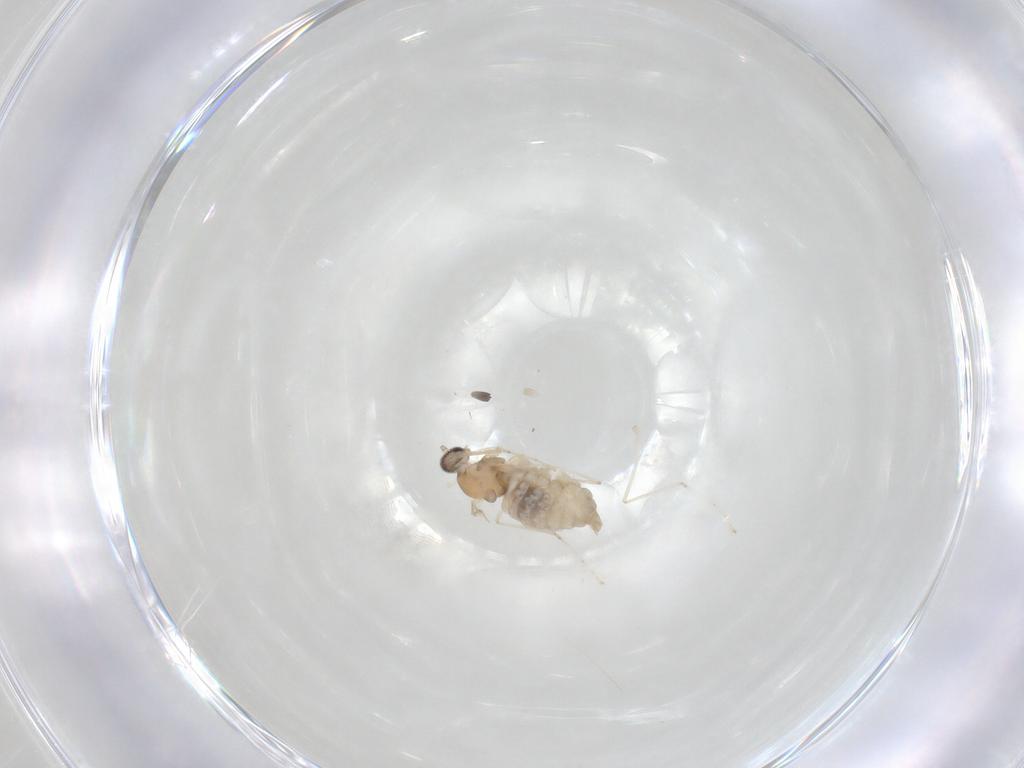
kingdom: Animalia
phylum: Arthropoda
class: Insecta
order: Diptera
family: Cecidomyiidae
